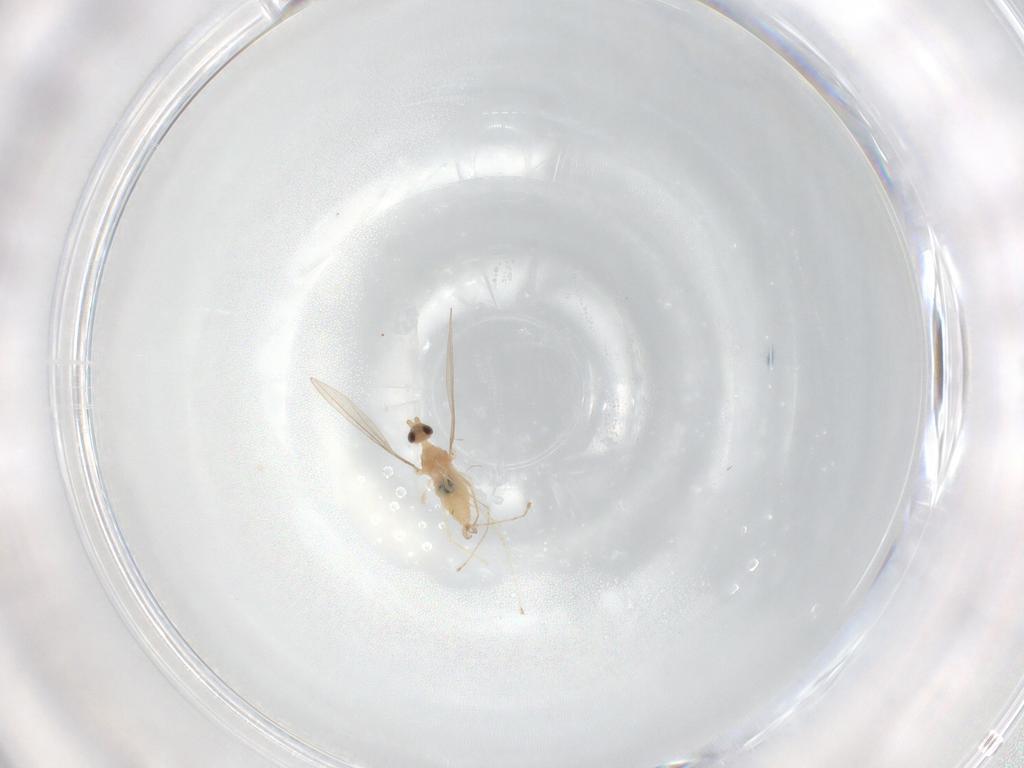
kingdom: Animalia
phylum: Arthropoda
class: Insecta
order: Diptera
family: Cecidomyiidae
